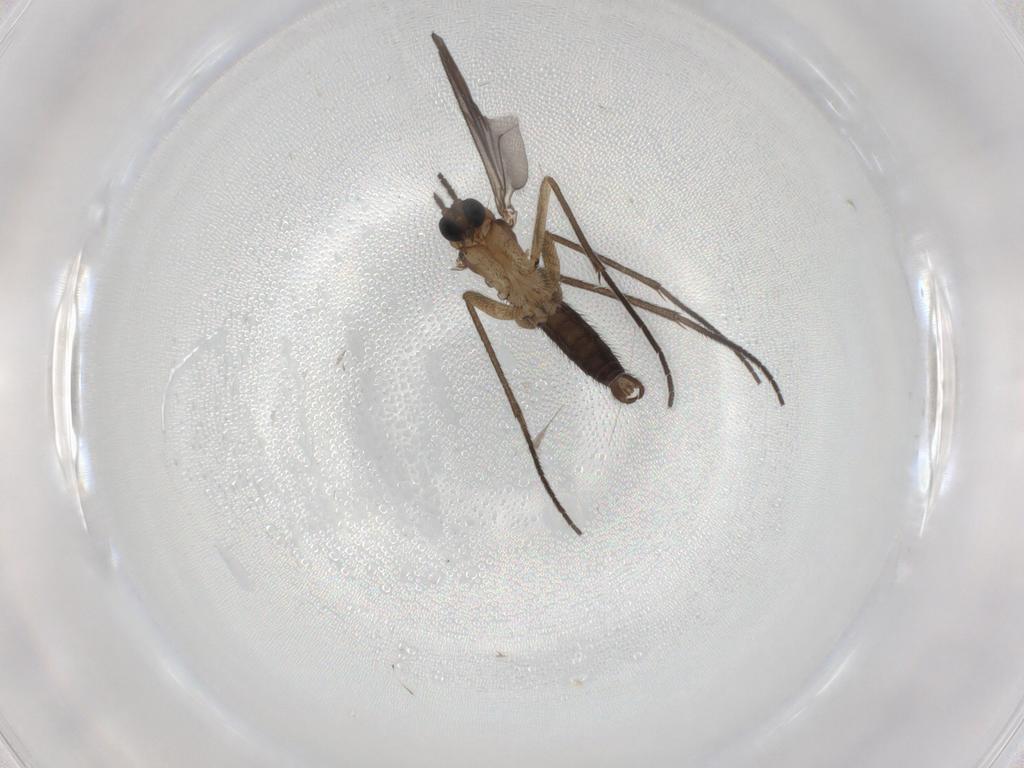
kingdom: Animalia
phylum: Arthropoda
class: Insecta
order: Diptera
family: Sciaridae
